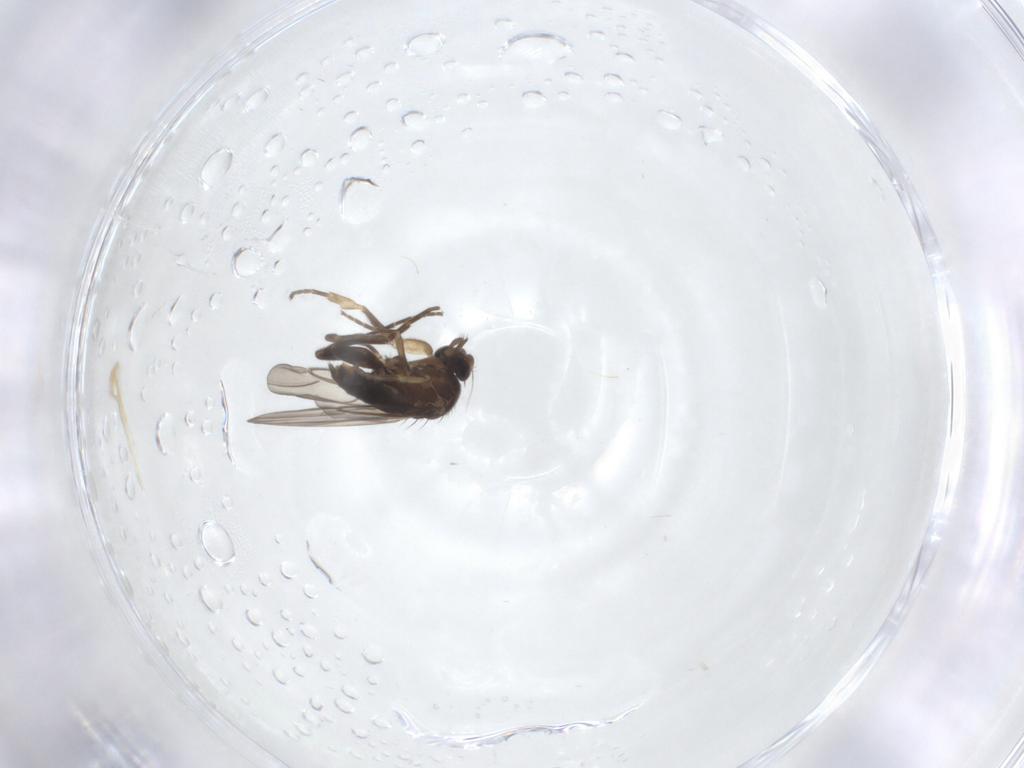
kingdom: Animalia
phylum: Arthropoda
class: Insecta
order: Diptera
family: Phoridae
